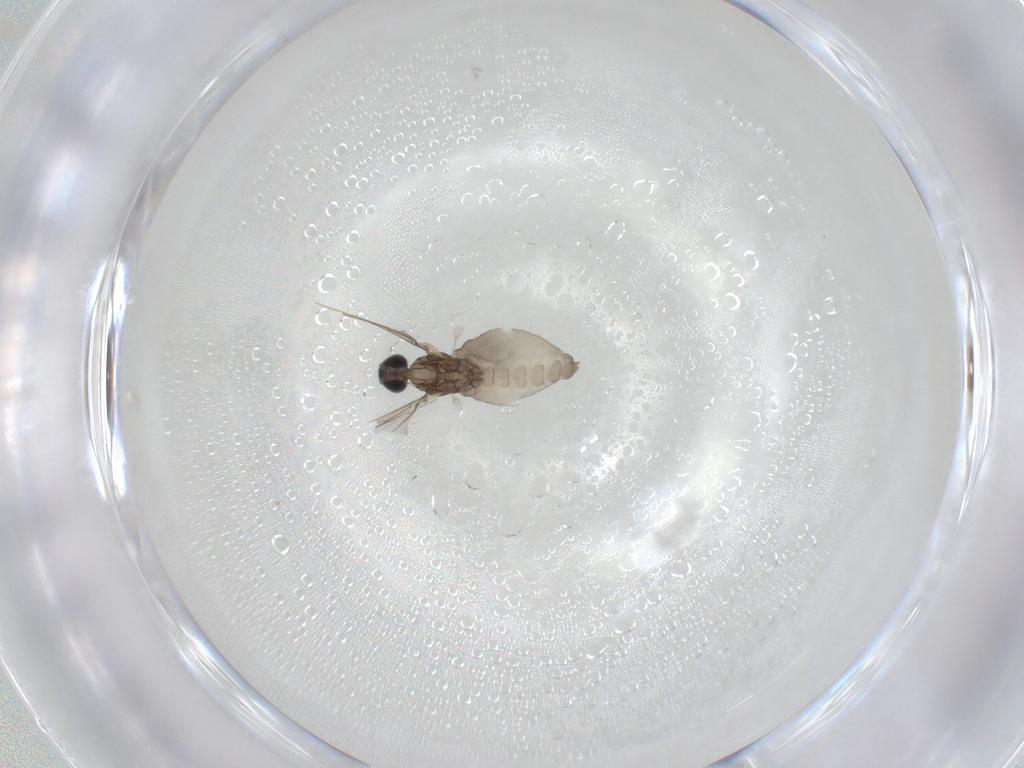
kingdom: Animalia
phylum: Arthropoda
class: Insecta
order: Diptera
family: Cecidomyiidae
